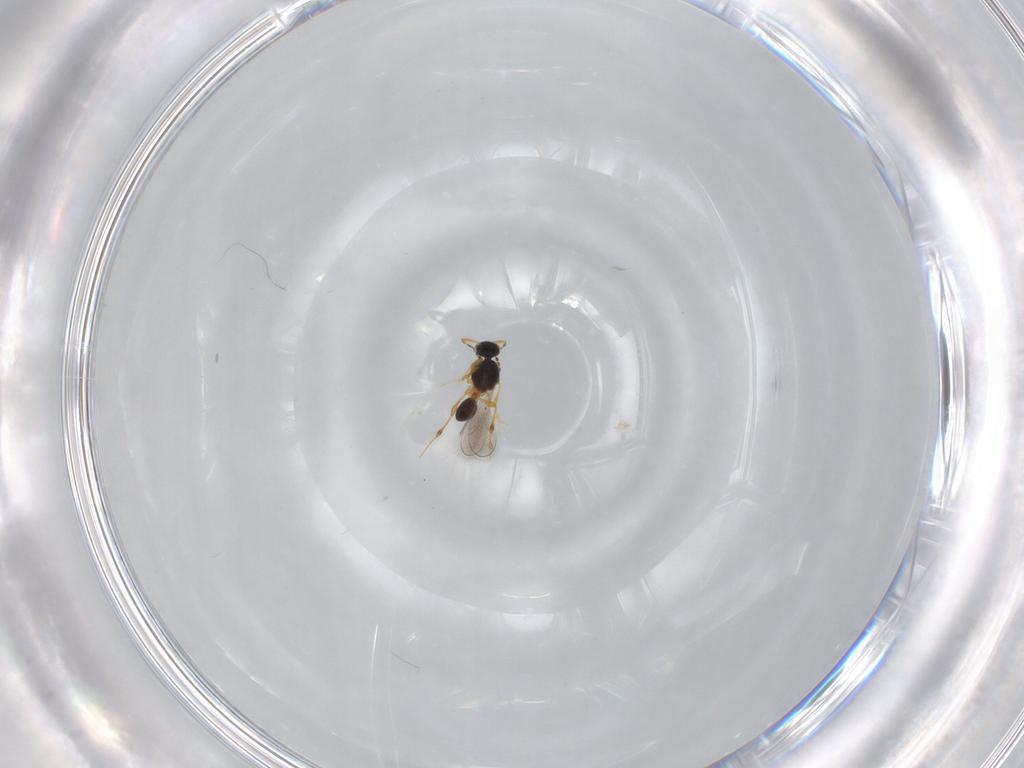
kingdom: Animalia
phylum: Arthropoda
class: Insecta
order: Hymenoptera
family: Platygastridae
